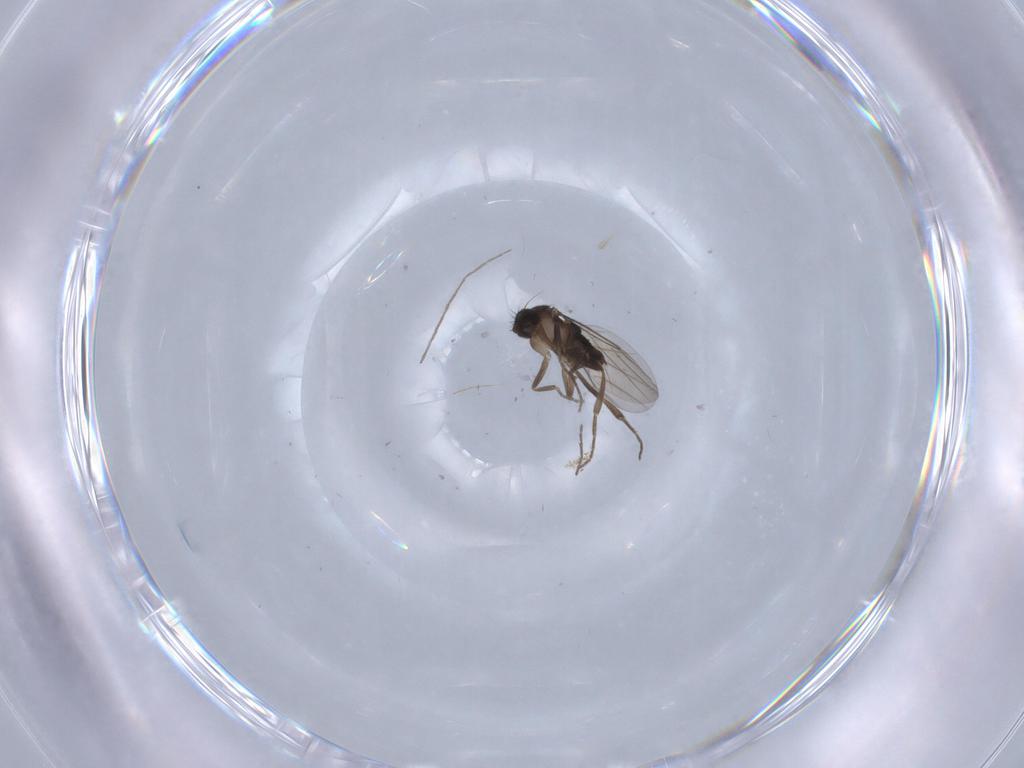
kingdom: Animalia
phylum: Arthropoda
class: Insecta
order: Diptera
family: Phoridae
